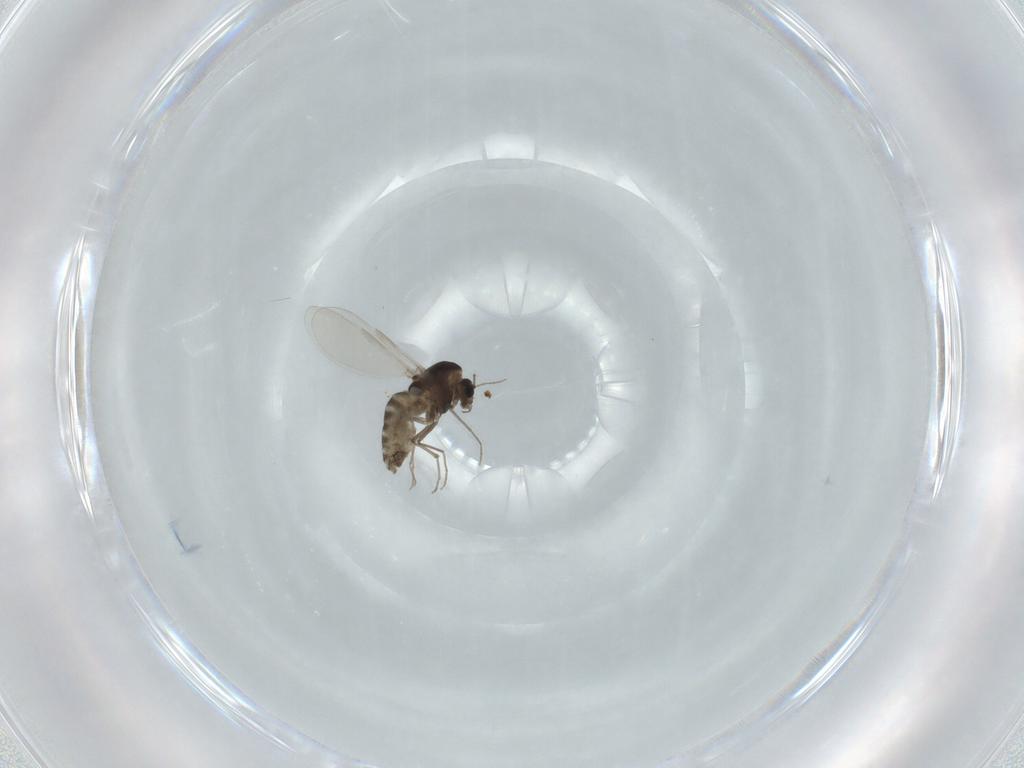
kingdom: Animalia
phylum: Arthropoda
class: Insecta
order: Diptera
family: Chironomidae
